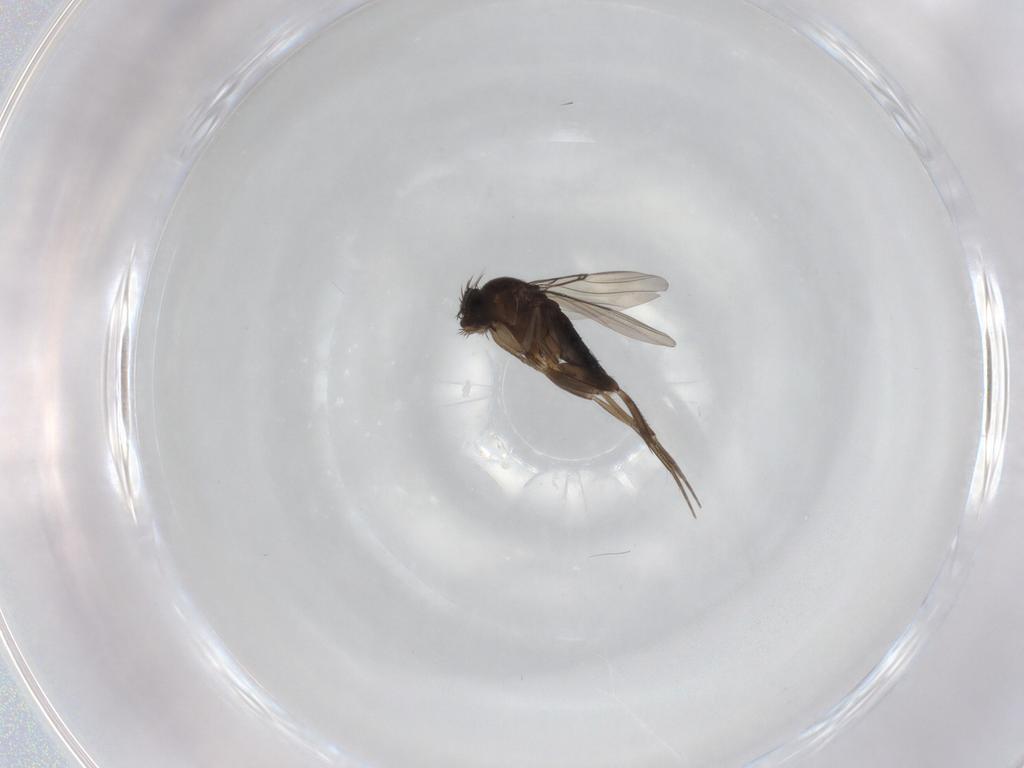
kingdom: Animalia
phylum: Arthropoda
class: Insecta
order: Diptera
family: Phoridae
